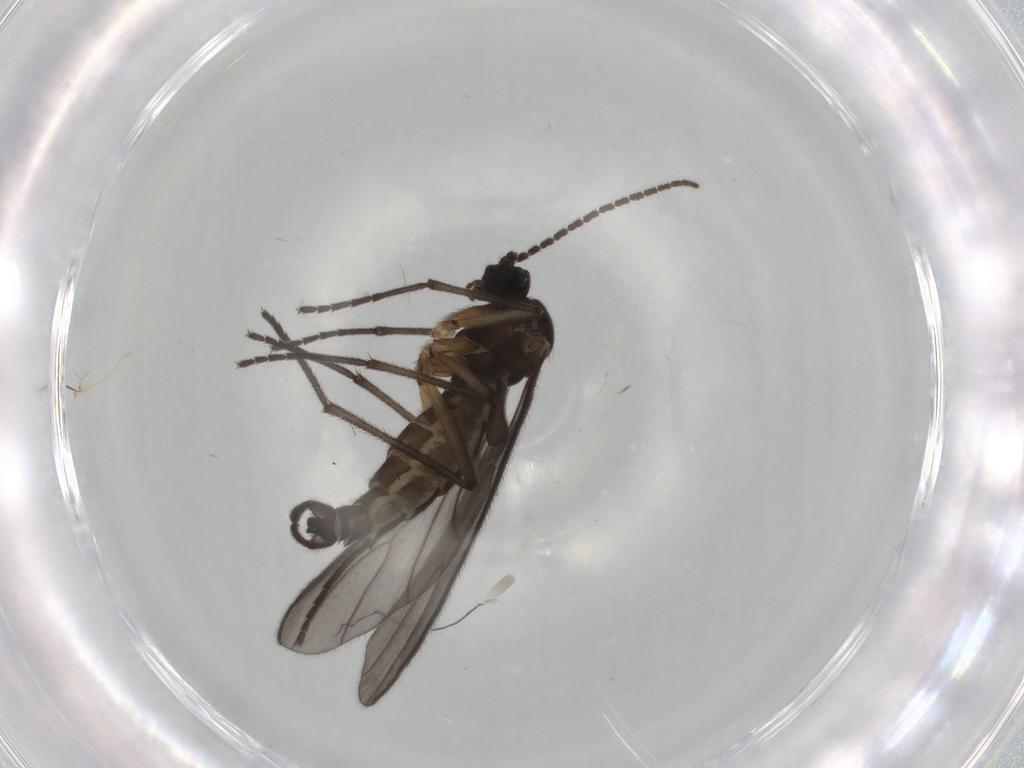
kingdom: Animalia
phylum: Arthropoda
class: Insecta
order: Diptera
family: Sciaridae
